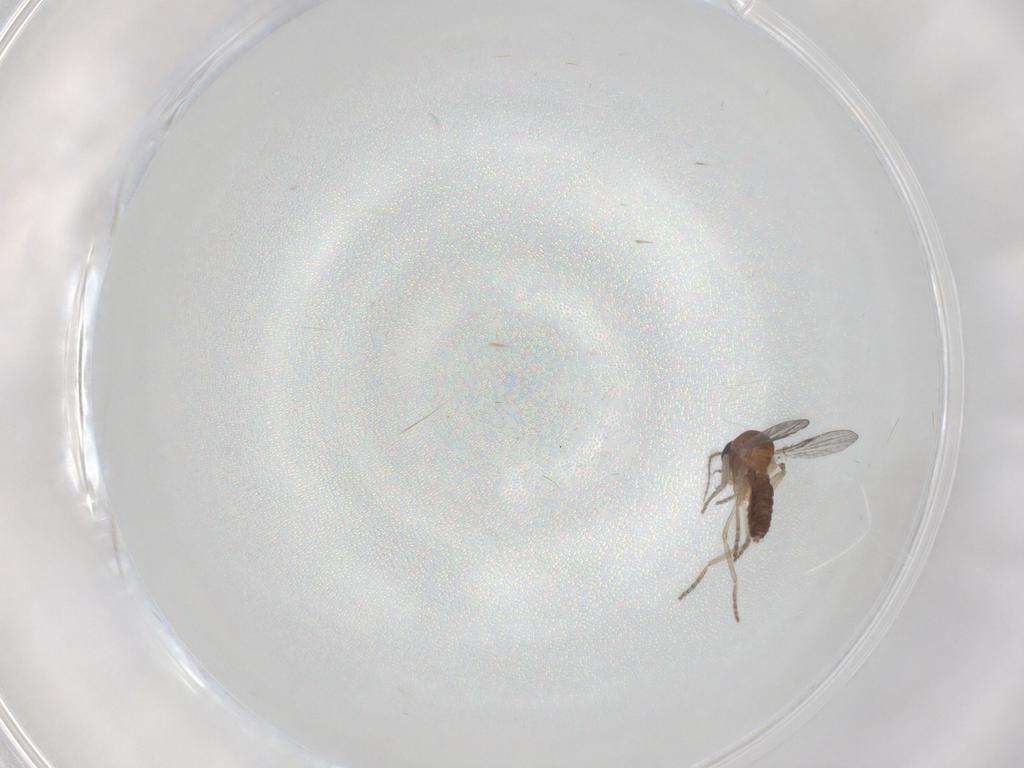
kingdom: Animalia
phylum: Arthropoda
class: Insecta
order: Diptera
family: Ceratopogonidae
